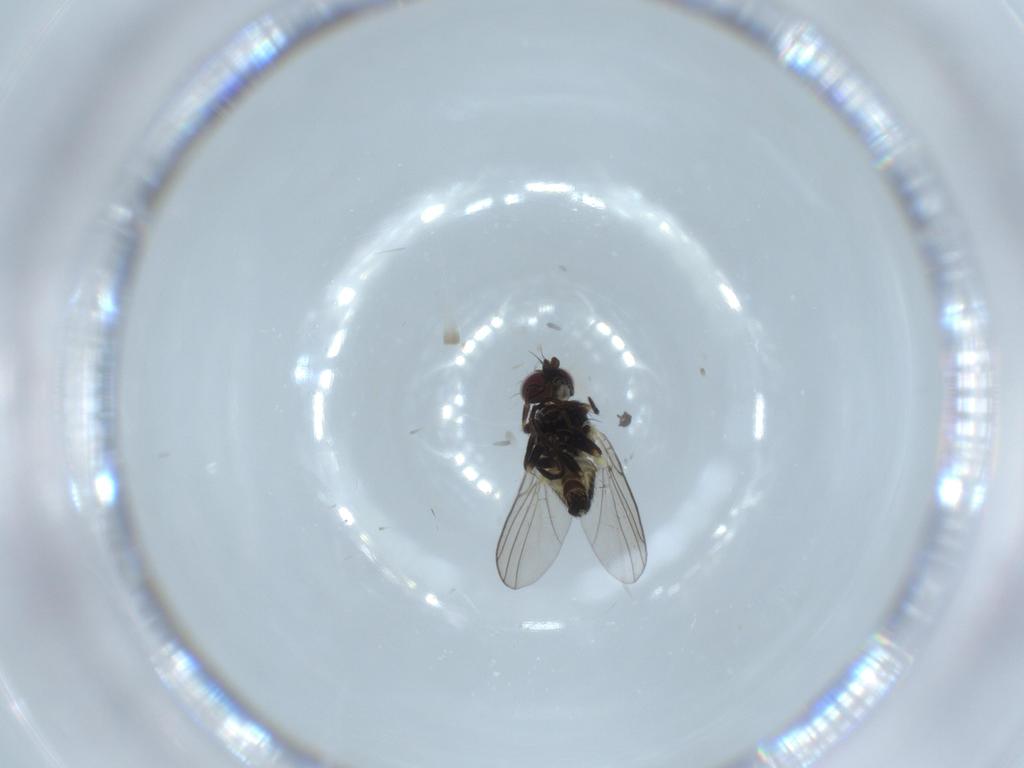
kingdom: Animalia
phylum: Arthropoda
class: Insecta
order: Diptera
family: Agromyzidae
